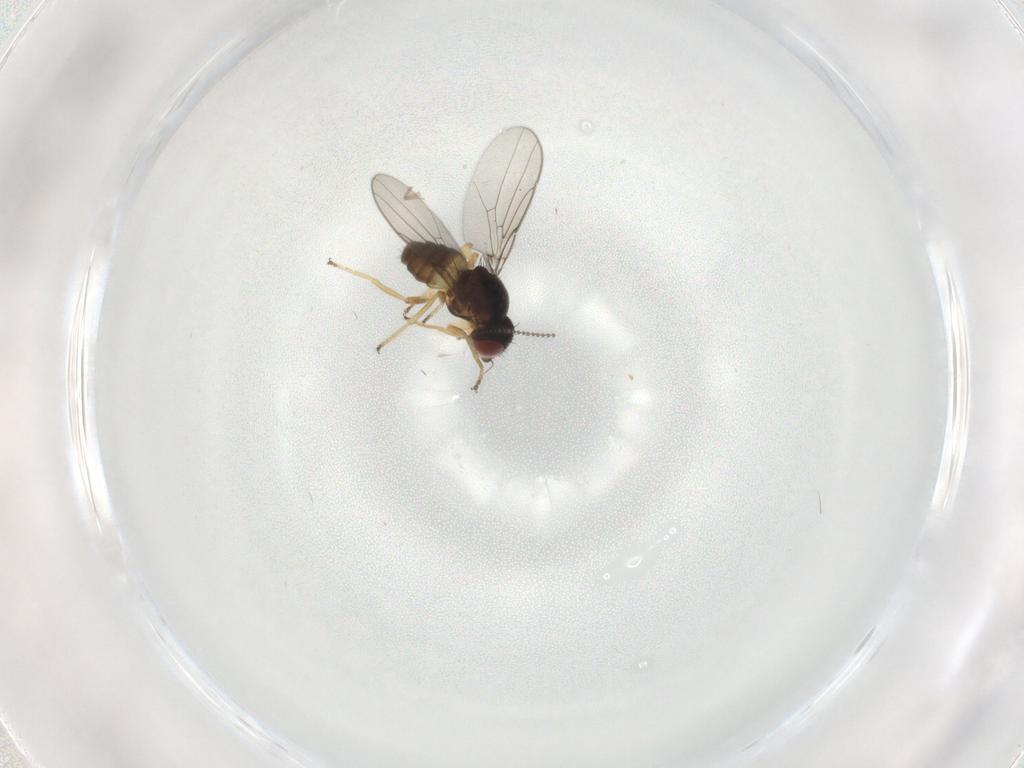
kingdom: Animalia
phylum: Arthropoda
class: Insecta
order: Diptera
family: Chloropidae
